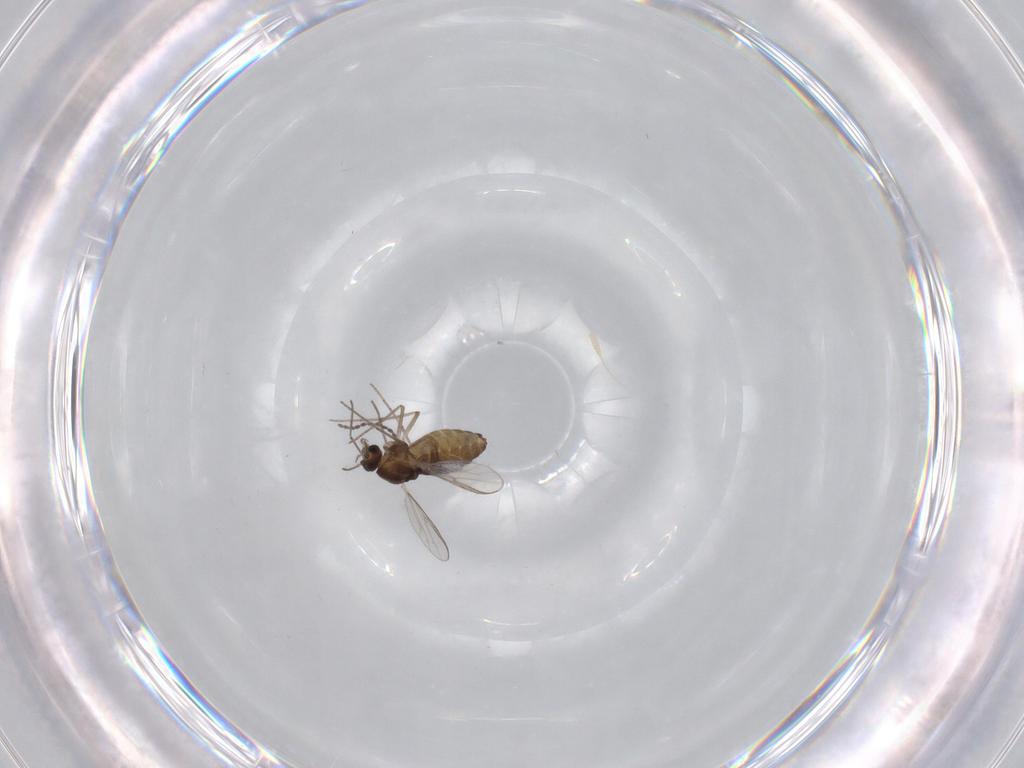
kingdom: Animalia
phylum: Arthropoda
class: Insecta
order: Diptera
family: Chironomidae
